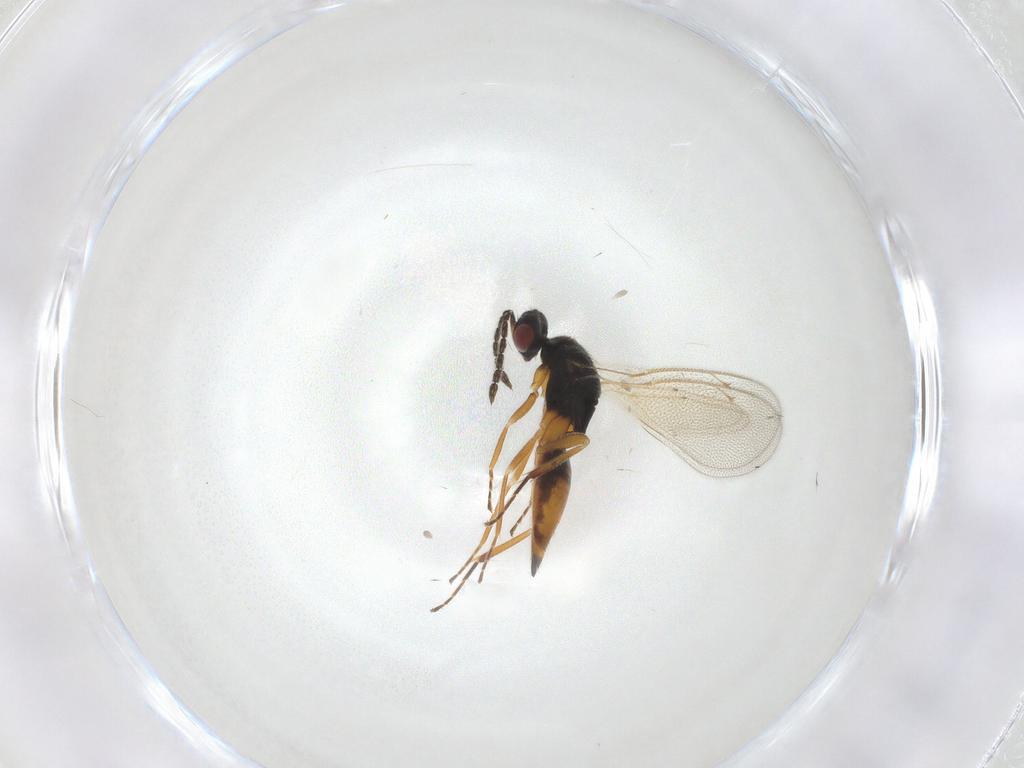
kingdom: Animalia
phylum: Arthropoda
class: Insecta
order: Hymenoptera
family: Eulophidae
